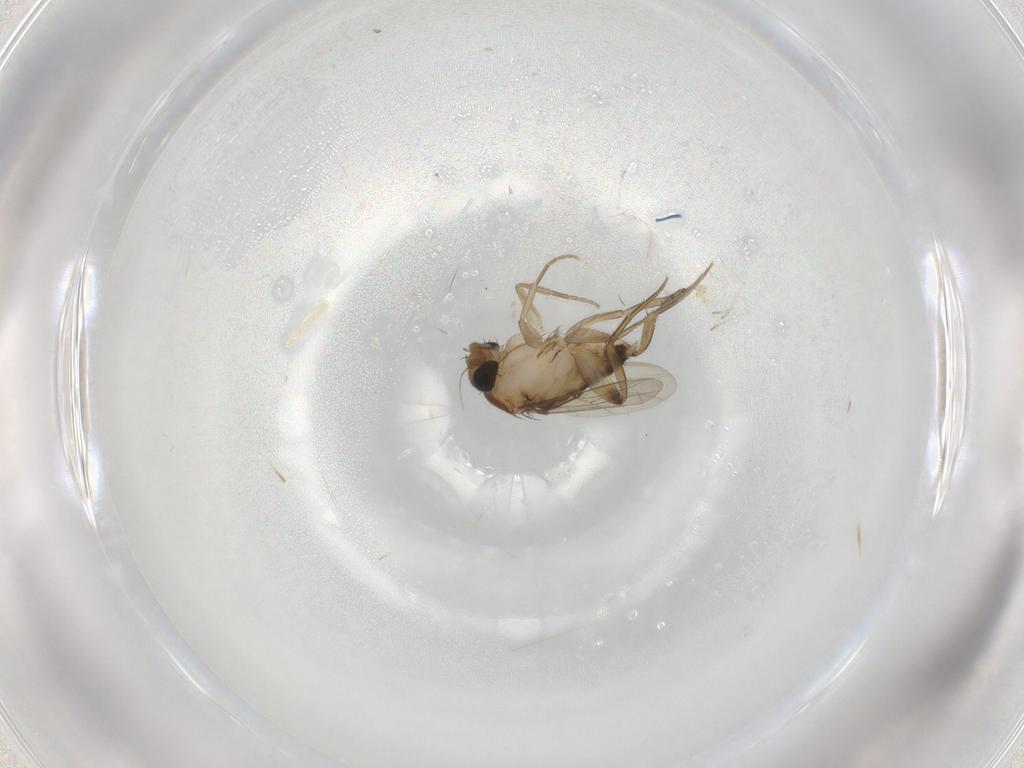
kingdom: Animalia
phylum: Arthropoda
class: Insecta
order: Diptera
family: Phoridae
